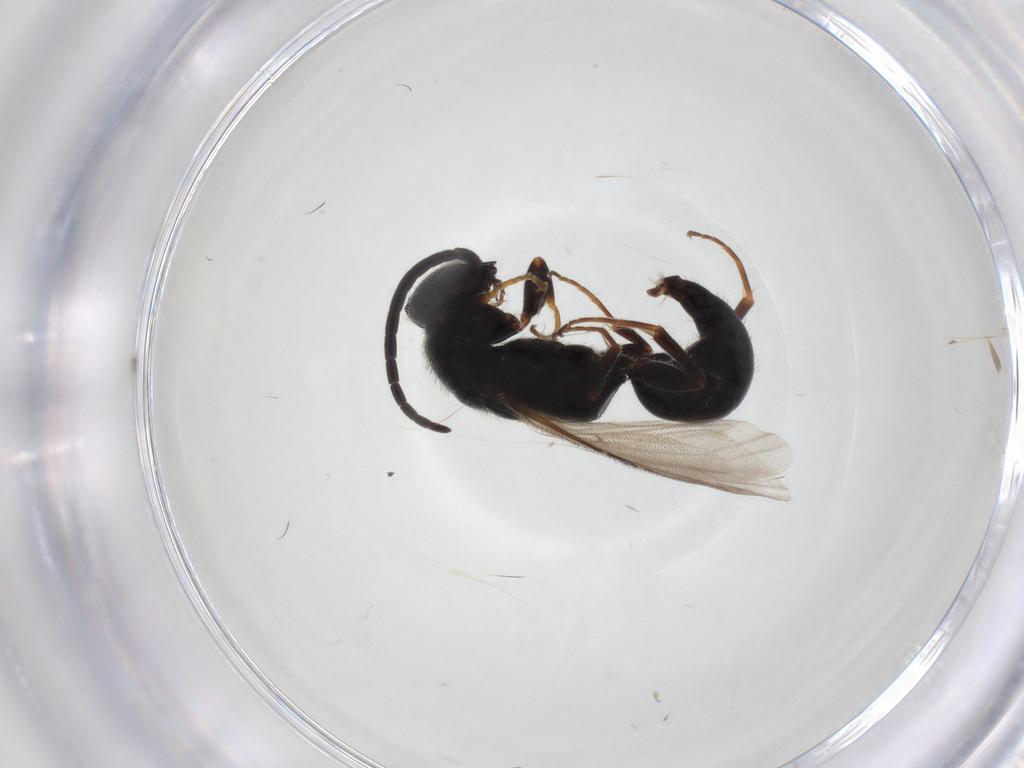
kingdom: Animalia
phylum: Arthropoda
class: Insecta
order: Hymenoptera
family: Bethylidae
